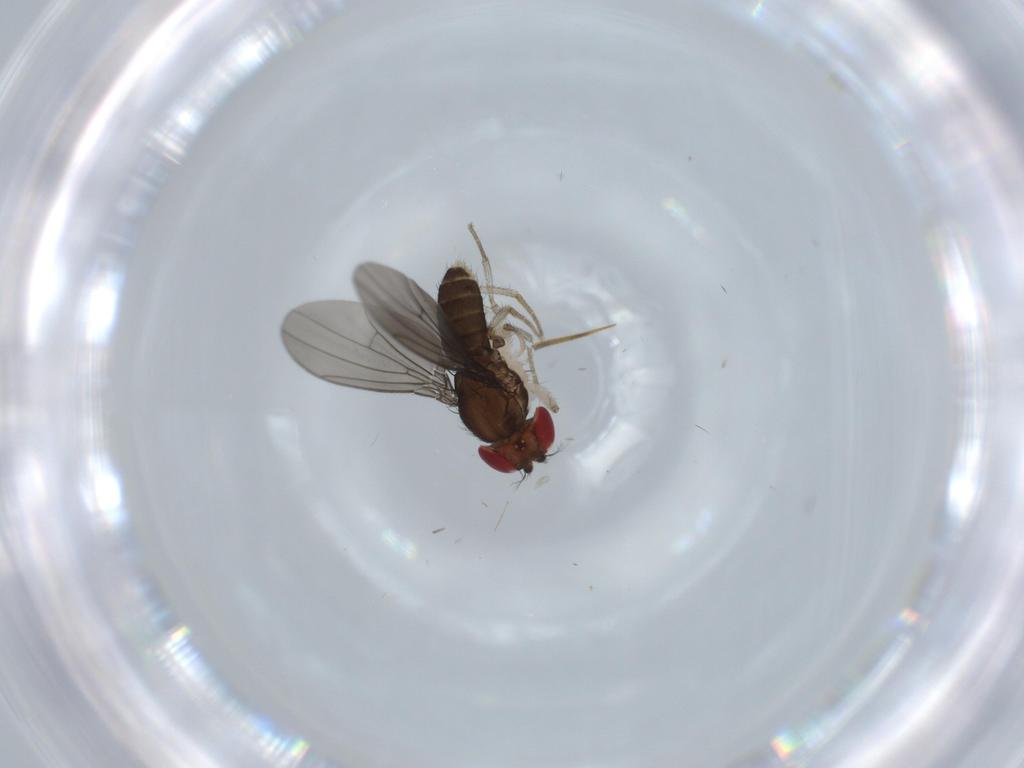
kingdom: Animalia
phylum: Arthropoda
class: Insecta
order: Diptera
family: Drosophilidae
